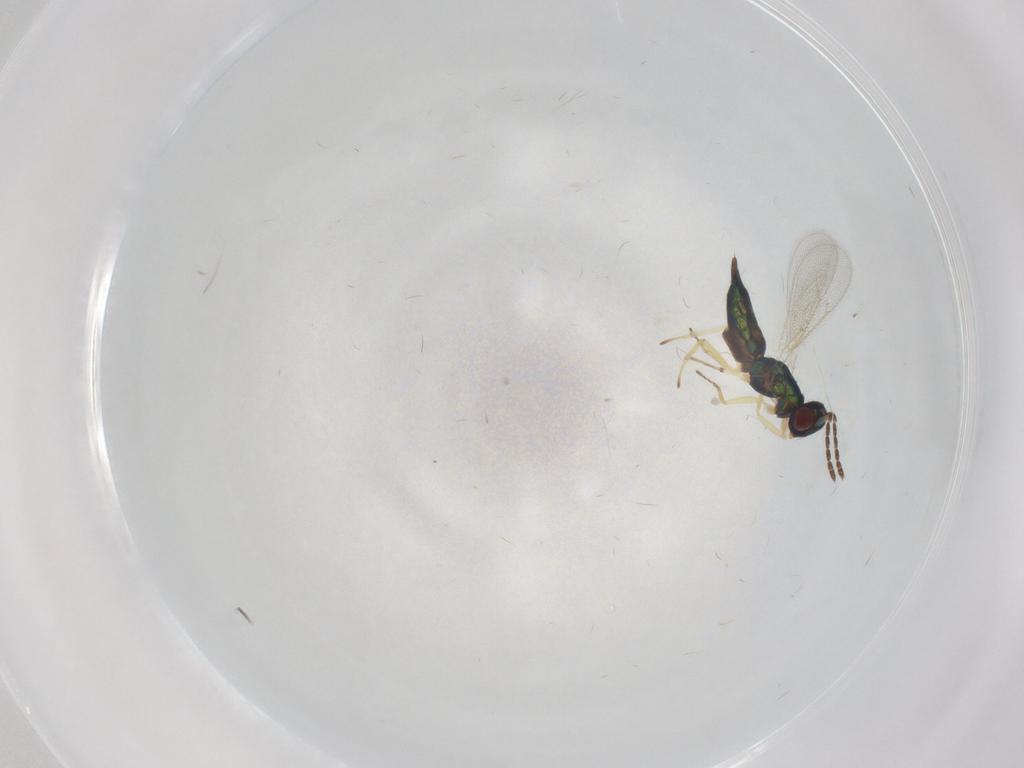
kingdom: Animalia
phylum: Arthropoda
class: Insecta
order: Hymenoptera
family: Eulophidae
